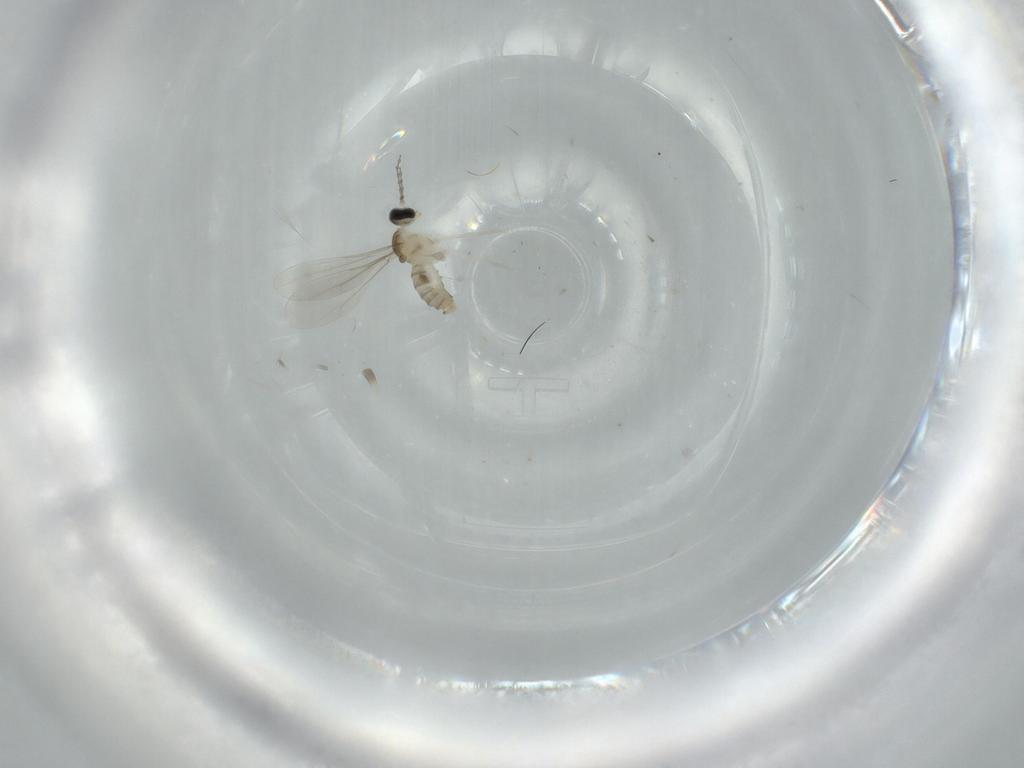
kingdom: Animalia
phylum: Arthropoda
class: Insecta
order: Diptera
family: Cecidomyiidae
